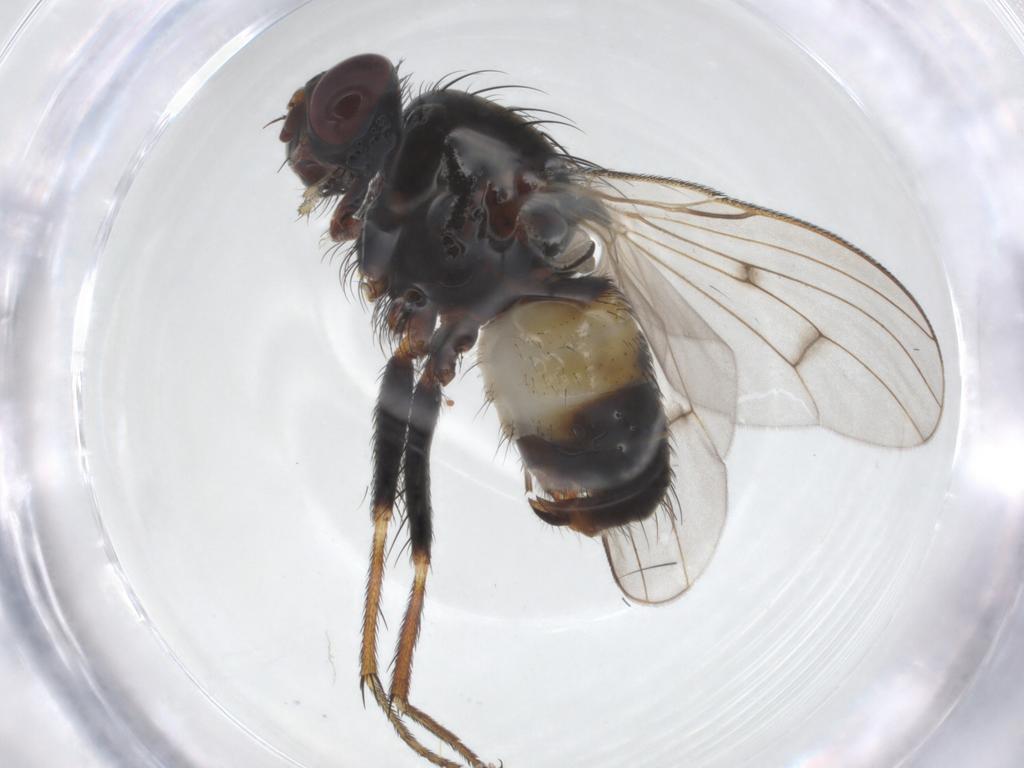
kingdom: Animalia
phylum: Arthropoda
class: Insecta
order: Diptera
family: Muscidae
